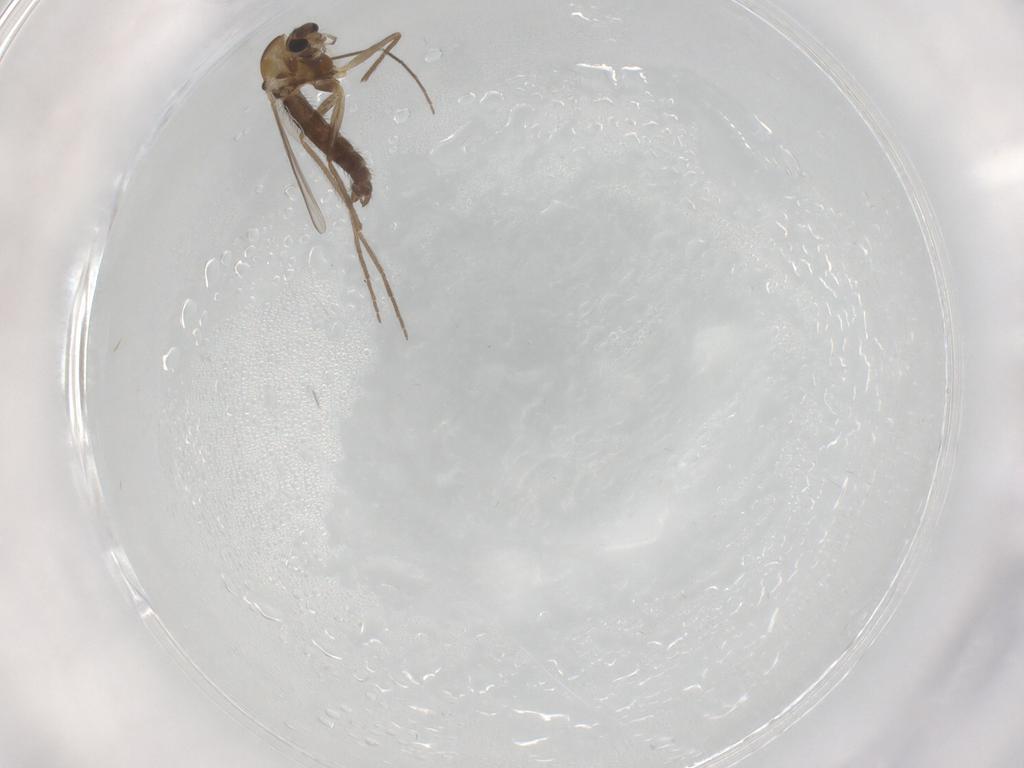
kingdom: Animalia
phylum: Arthropoda
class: Insecta
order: Diptera
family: Chironomidae
